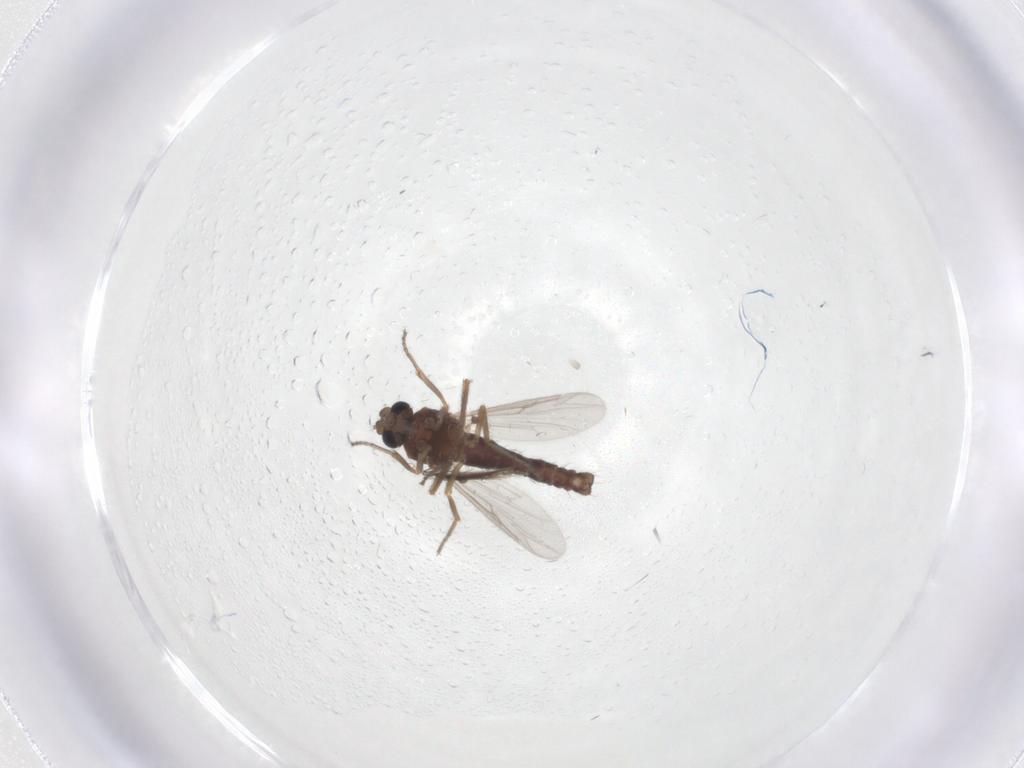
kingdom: Animalia
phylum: Arthropoda
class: Insecta
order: Diptera
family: Ceratopogonidae
